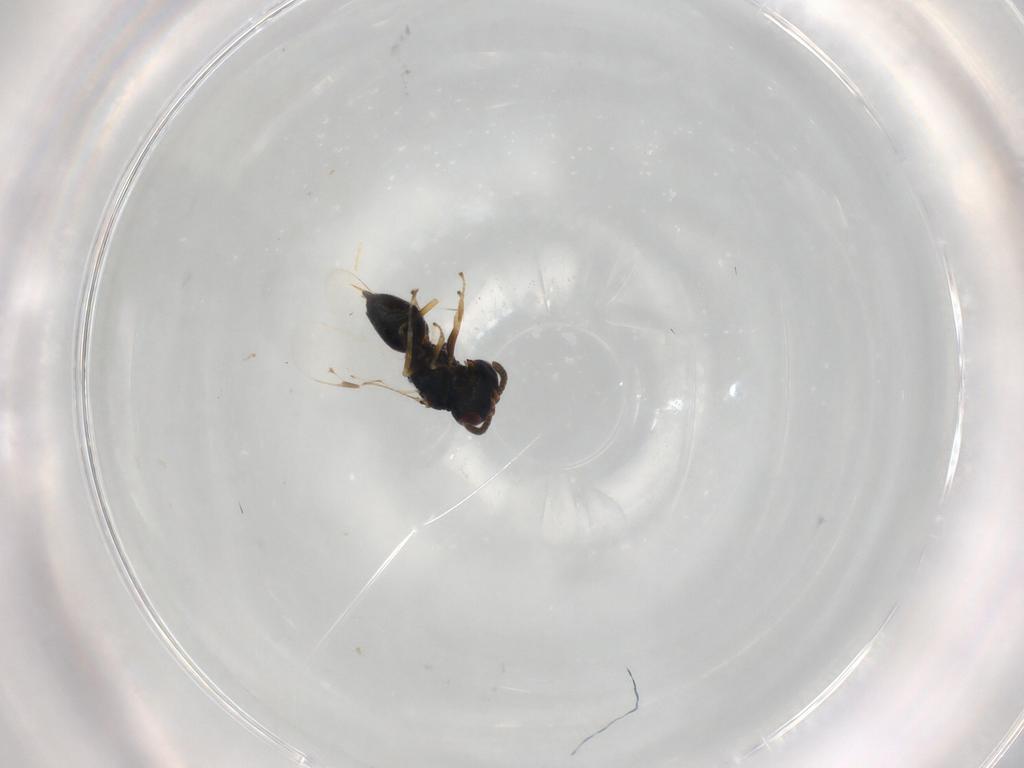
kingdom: Animalia
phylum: Arthropoda
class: Insecta
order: Hymenoptera
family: Pteromalidae
